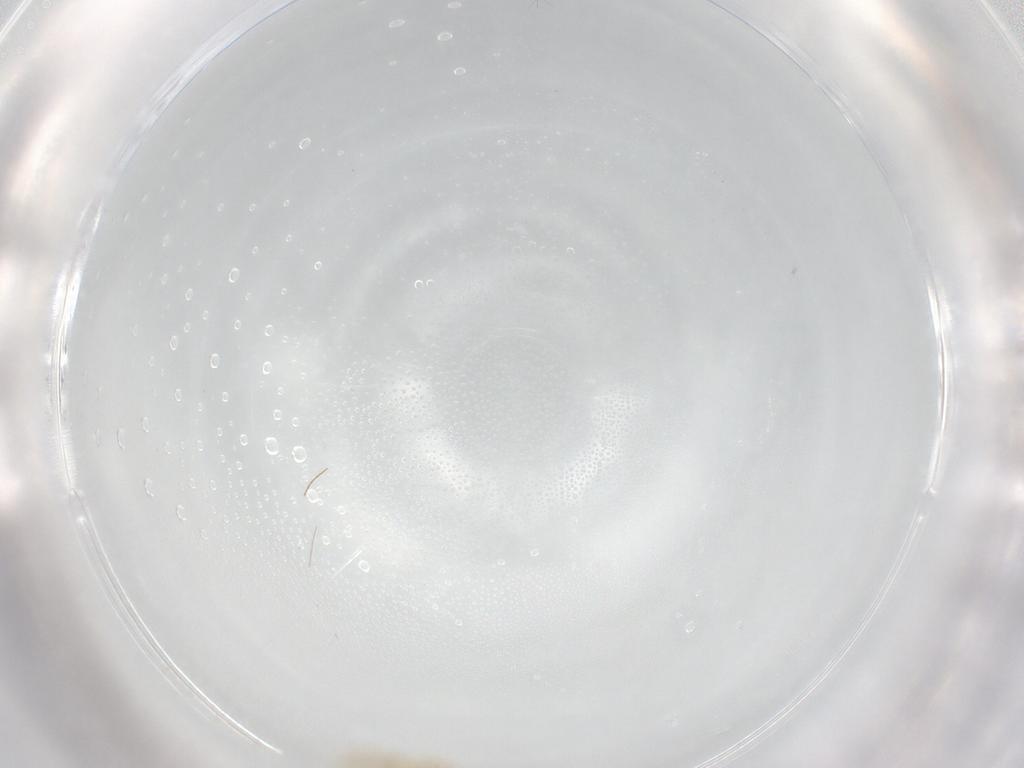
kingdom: Animalia
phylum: Arthropoda
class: Insecta
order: Diptera
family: Cecidomyiidae
